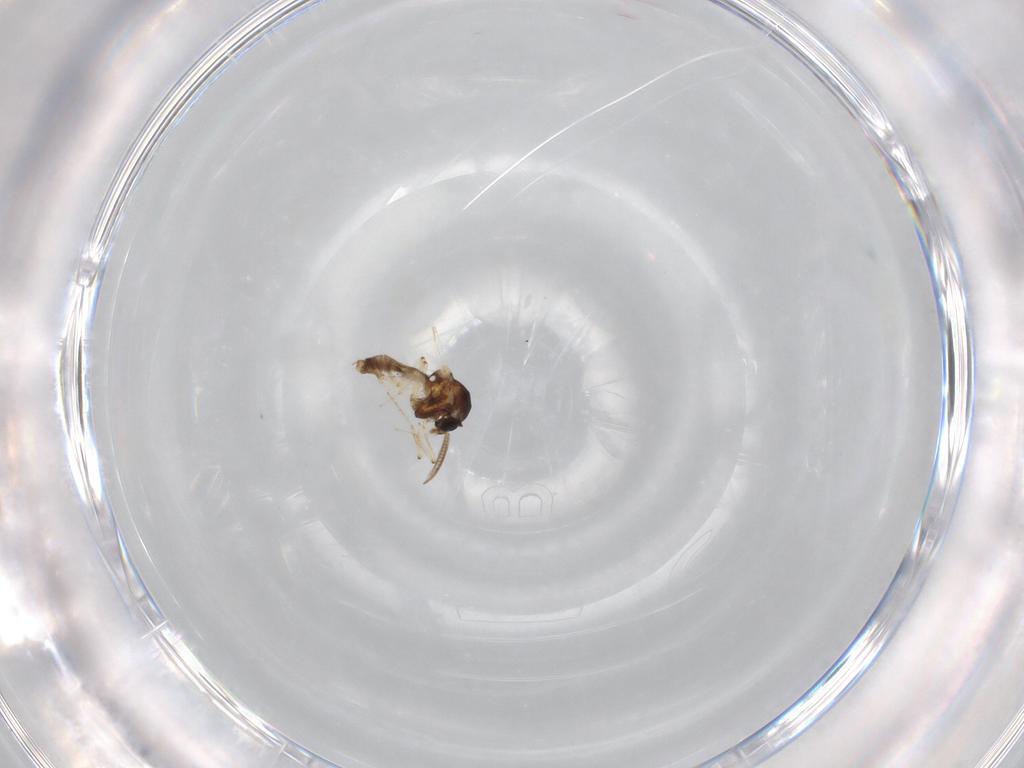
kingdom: Animalia
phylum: Arthropoda
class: Insecta
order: Diptera
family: Ceratopogonidae
